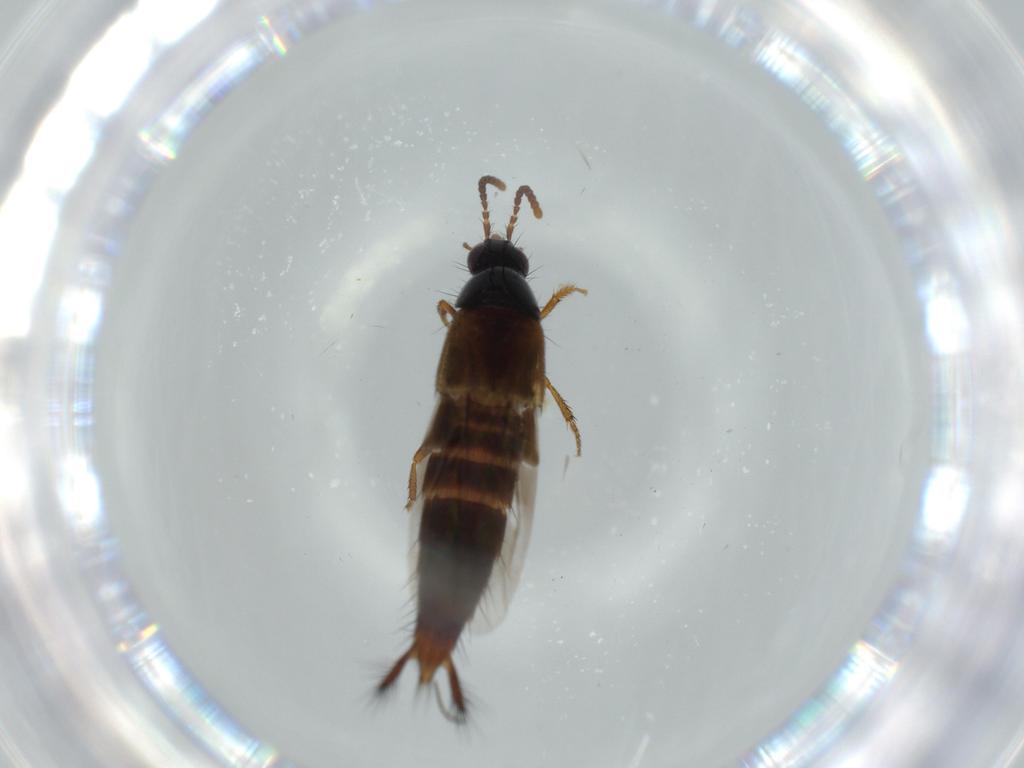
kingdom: Animalia
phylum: Arthropoda
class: Insecta
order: Coleoptera
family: Staphylinidae
